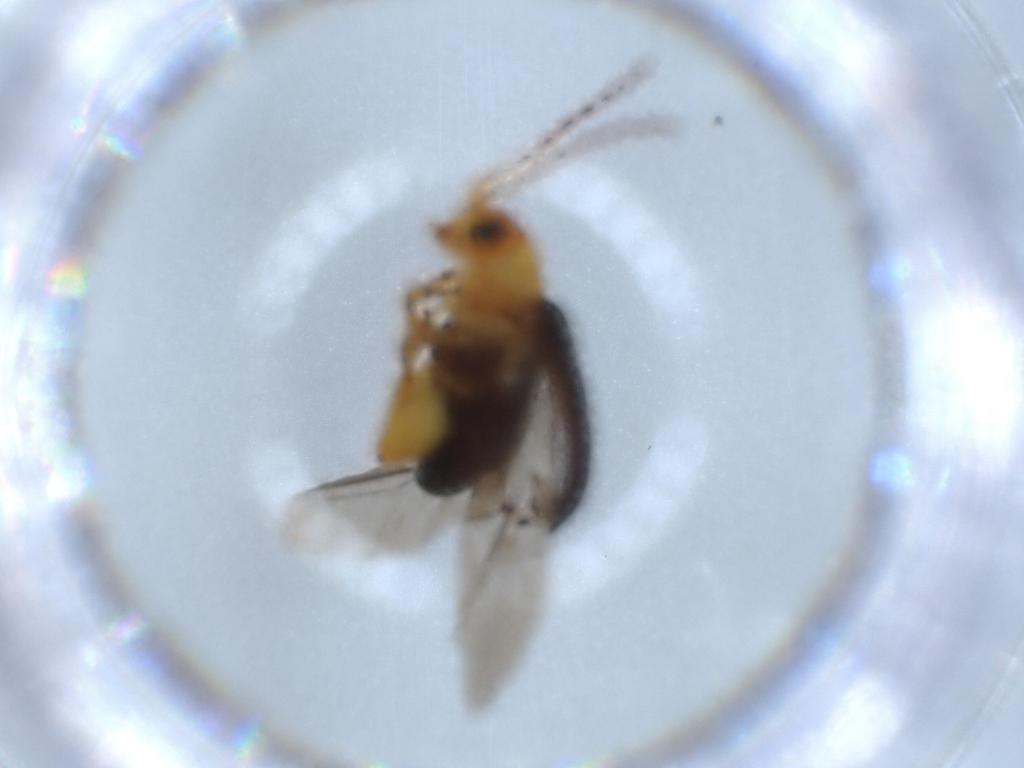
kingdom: Animalia
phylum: Arthropoda
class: Insecta
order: Coleoptera
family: Chrysomelidae
